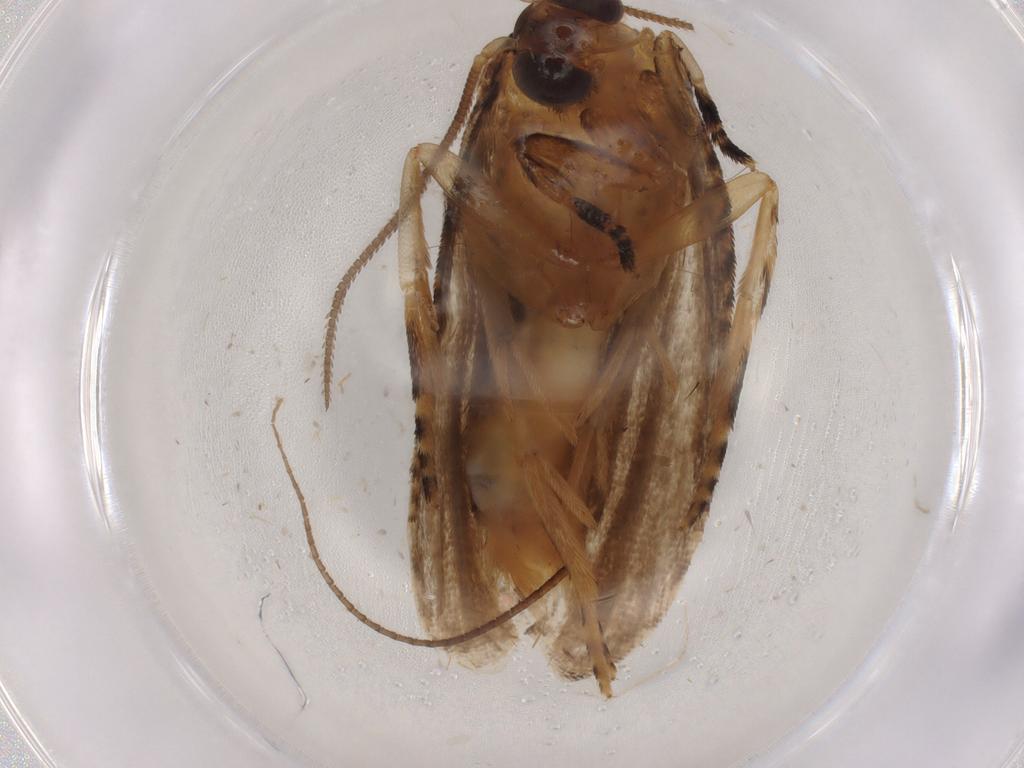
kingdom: Animalia
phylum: Arthropoda
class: Insecta
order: Lepidoptera
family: Tortricidae
